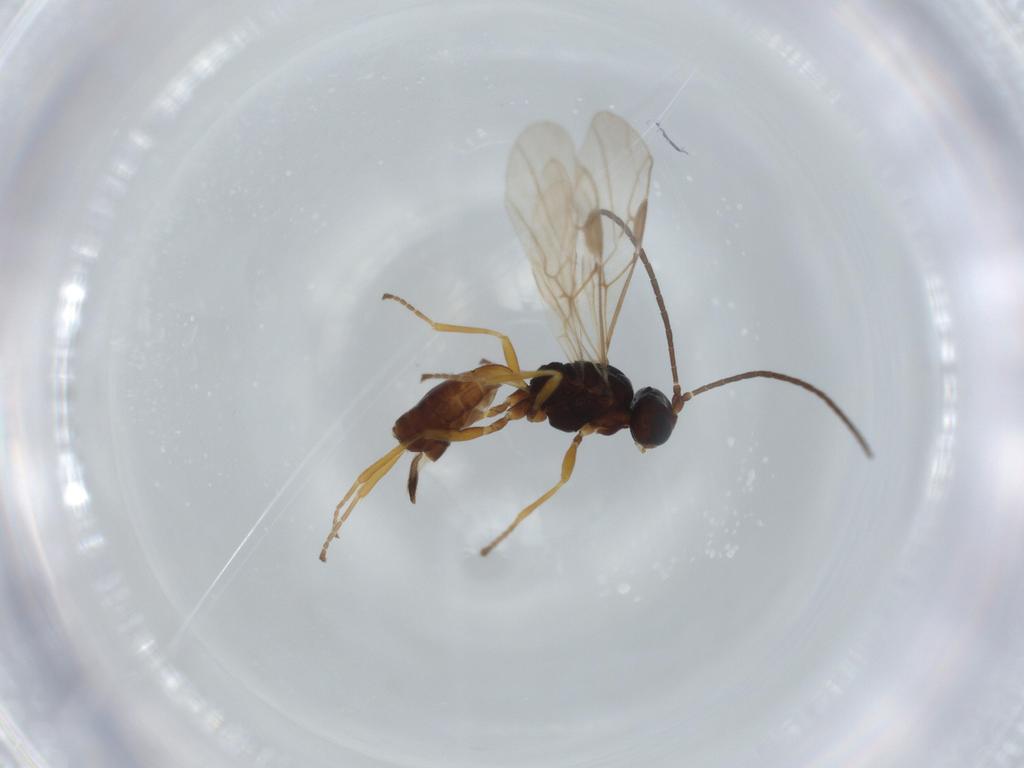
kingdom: Animalia
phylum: Arthropoda
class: Insecta
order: Hymenoptera
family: Braconidae
